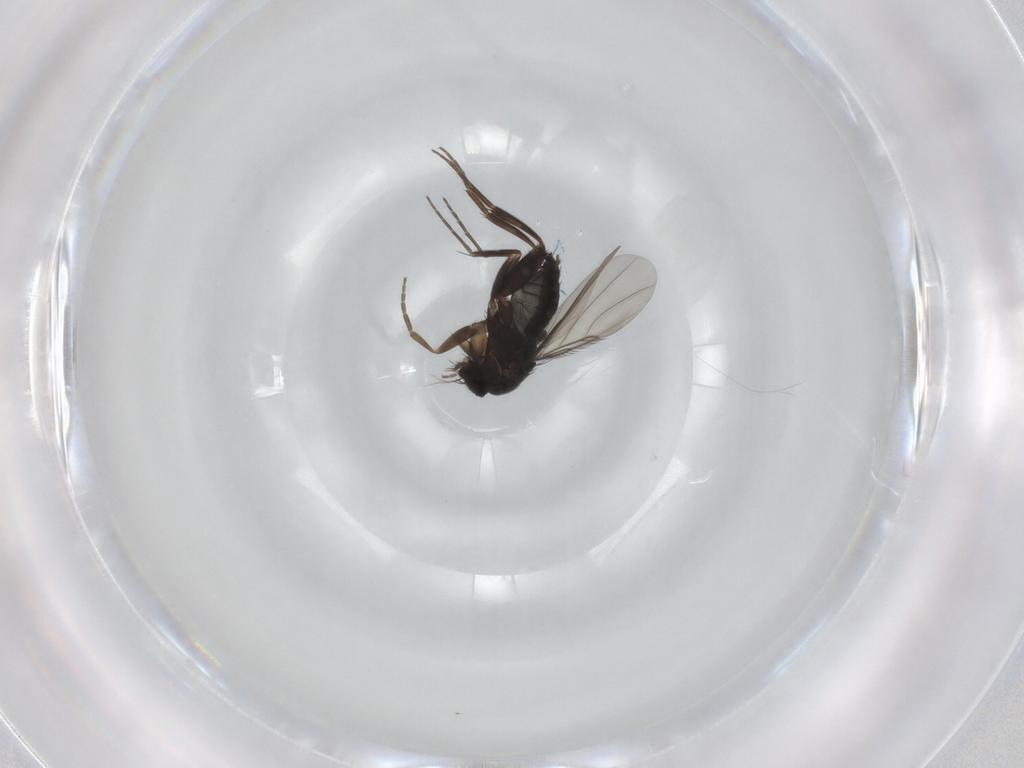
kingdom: Animalia
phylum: Arthropoda
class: Insecta
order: Diptera
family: Phoridae
